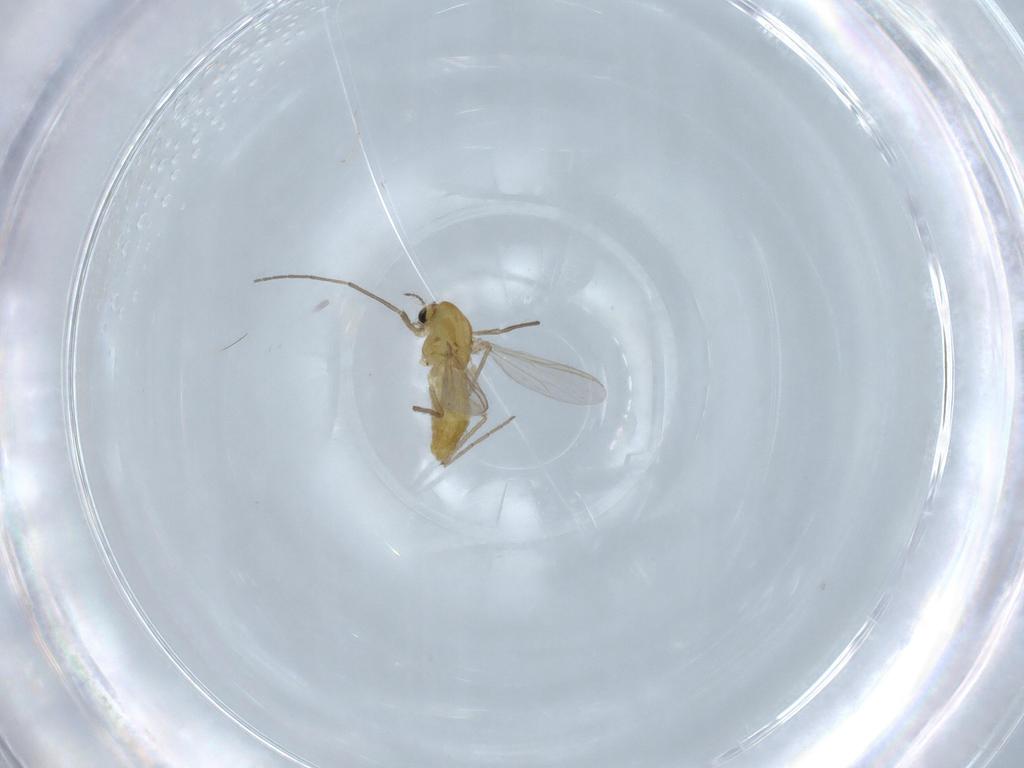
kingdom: Animalia
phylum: Arthropoda
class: Insecta
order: Diptera
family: Chironomidae
